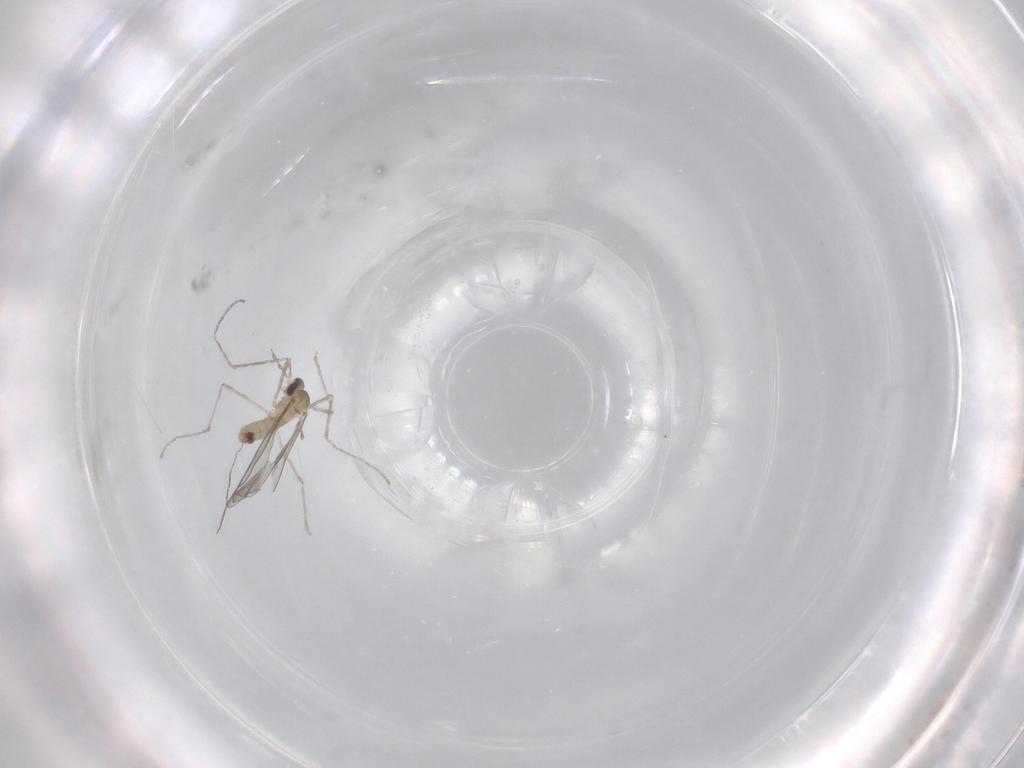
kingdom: Animalia
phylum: Arthropoda
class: Insecta
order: Diptera
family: Cecidomyiidae
